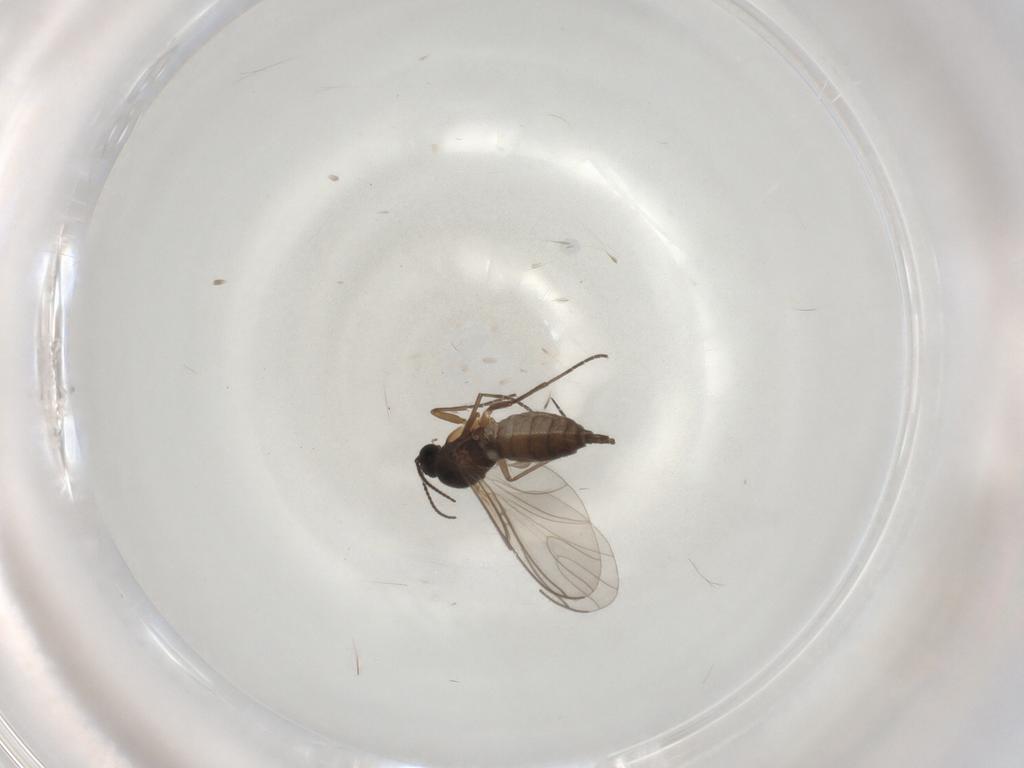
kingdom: Animalia
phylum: Arthropoda
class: Insecta
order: Diptera
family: Sciaridae
